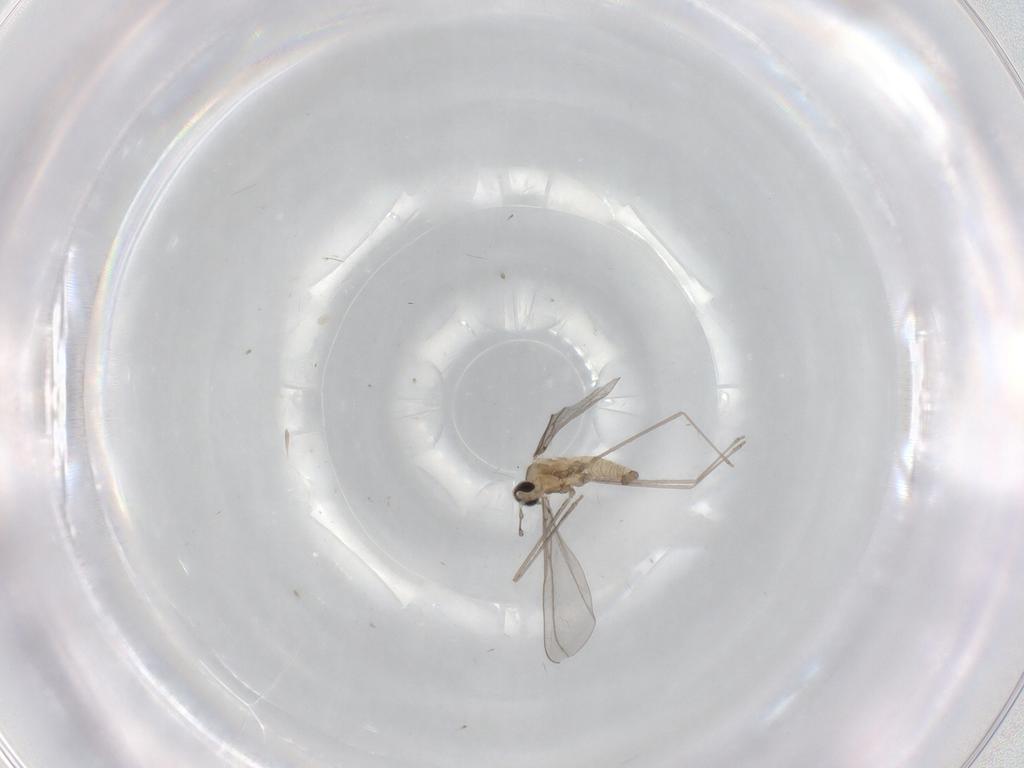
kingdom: Animalia
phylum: Arthropoda
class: Insecta
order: Diptera
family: Cecidomyiidae
